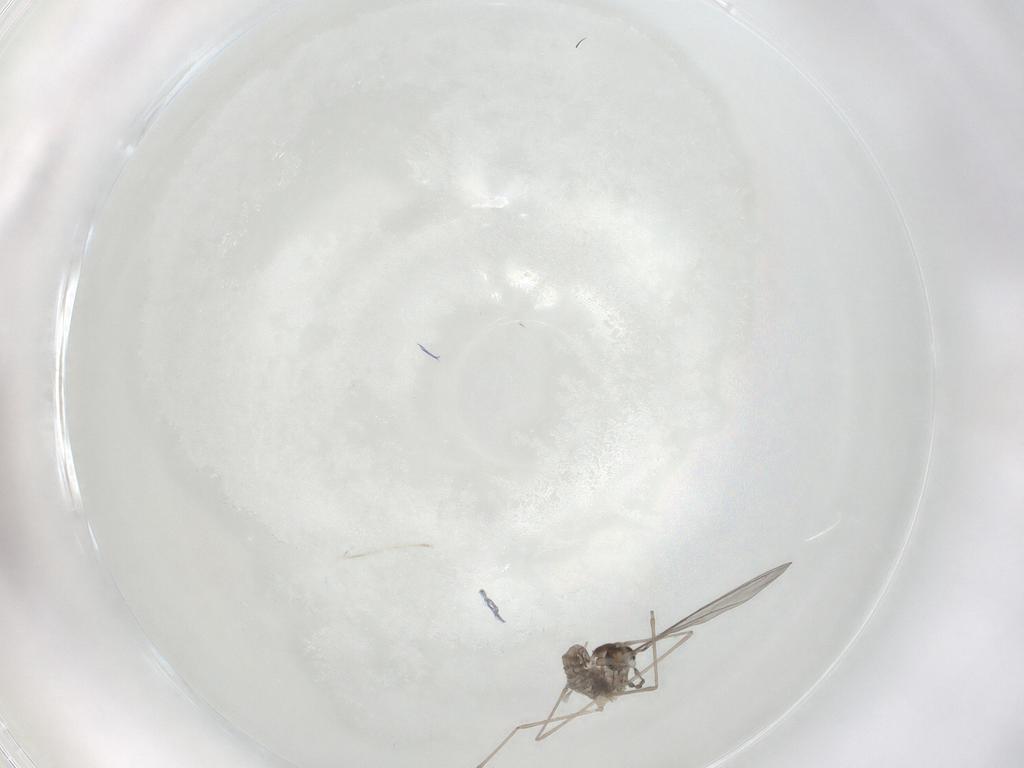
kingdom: Animalia
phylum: Arthropoda
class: Insecta
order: Diptera
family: Cecidomyiidae
